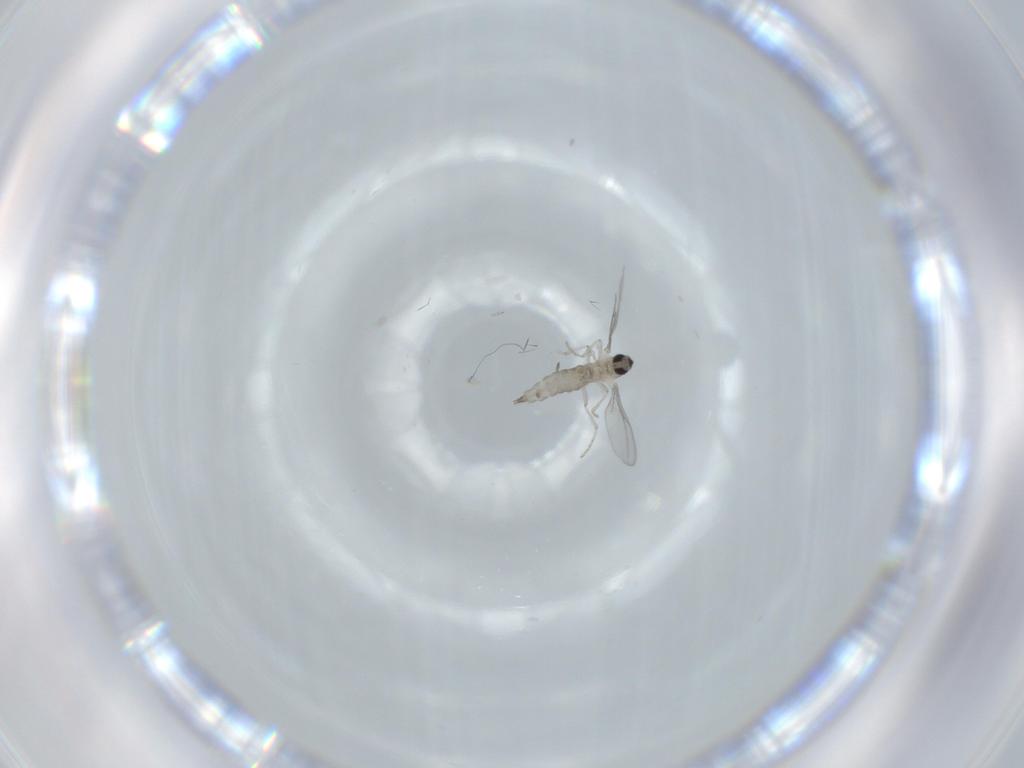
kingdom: Animalia
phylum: Arthropoda
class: Insecta
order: Diptera
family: Cecidomyiidae
